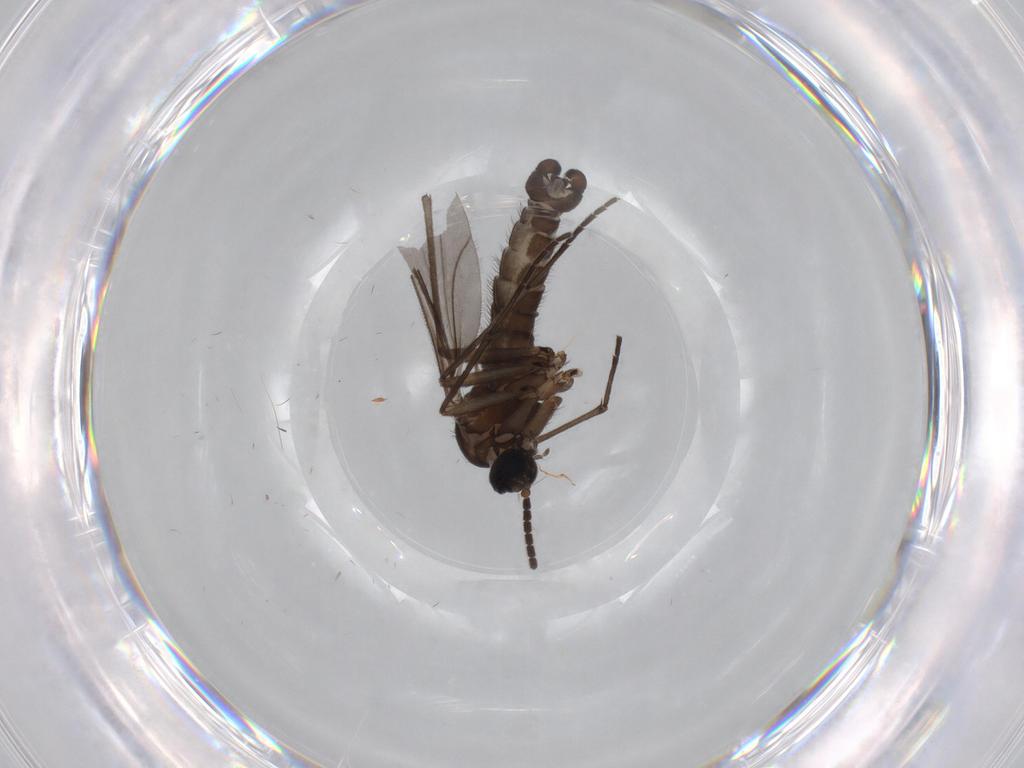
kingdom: Animalia
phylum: Arthropoda
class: Insecta
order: Diptera
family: Sciaridae
